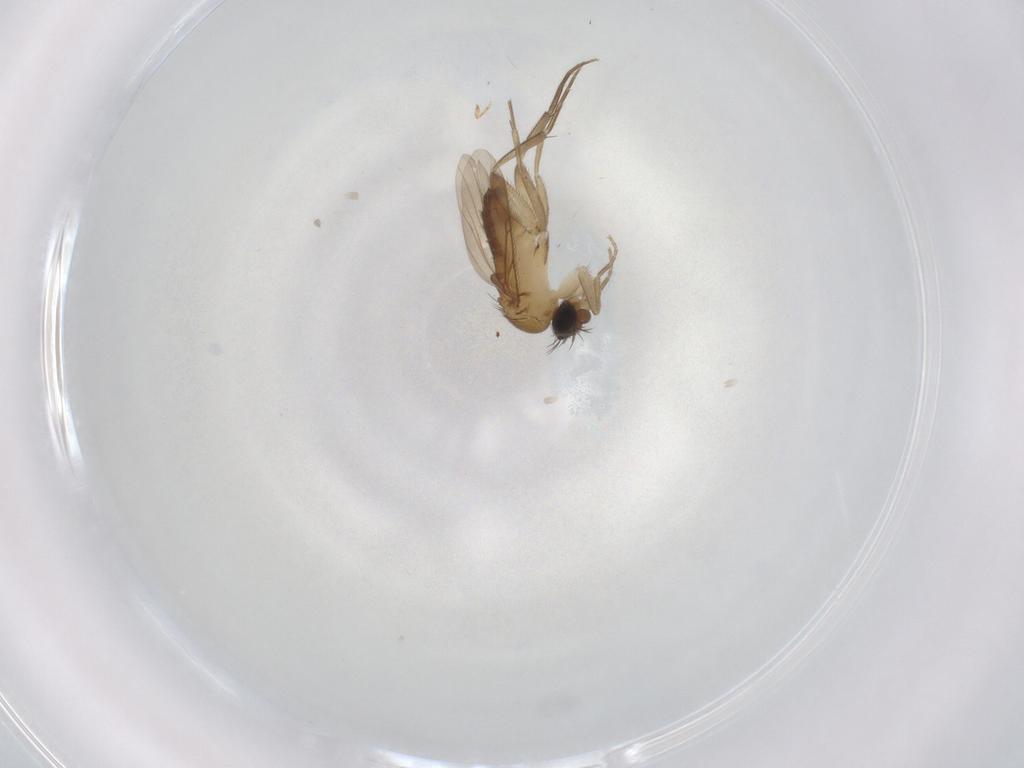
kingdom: Animalia
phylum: Arthropoda
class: Insecta
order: Diptera
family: Phoridae
